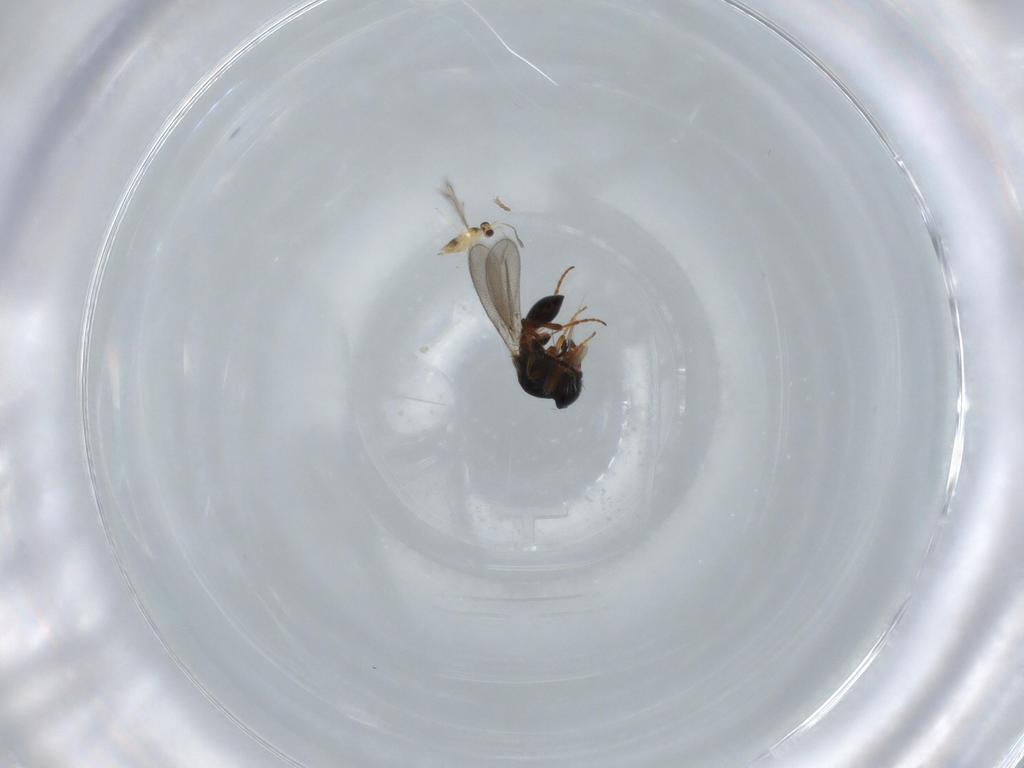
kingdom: Animalia
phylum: Arthropoda
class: Insecta
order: Hymenoptera
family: Platygastridae
